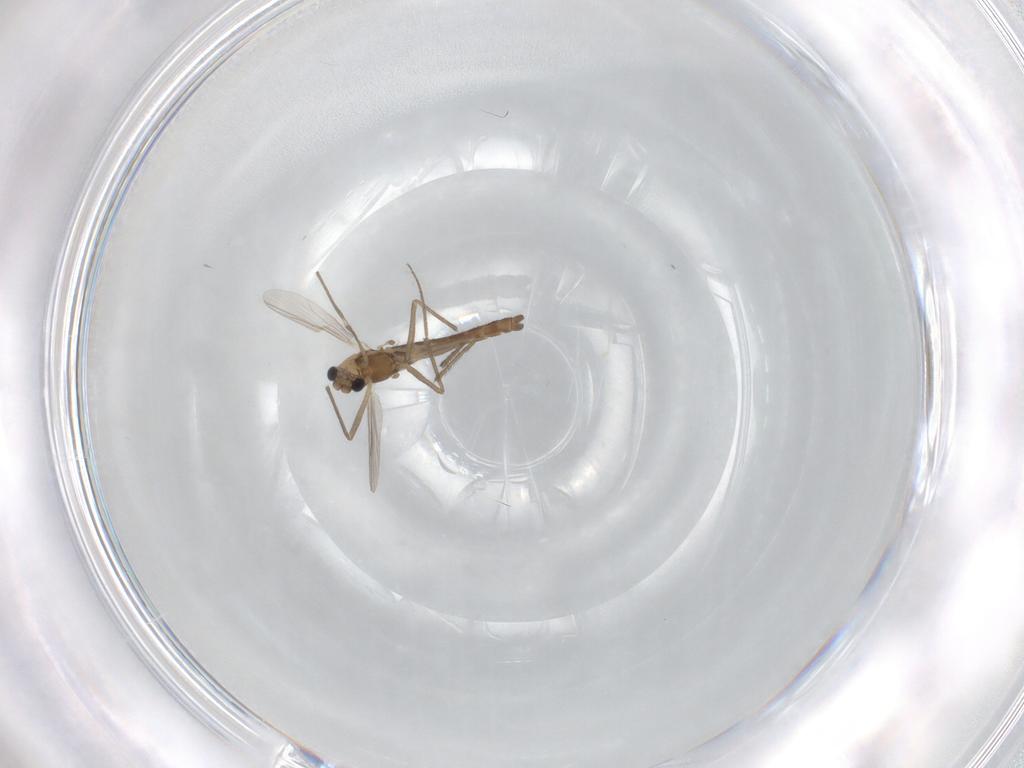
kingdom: Animalia
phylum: Arthropoda
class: Insecta
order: Diptera
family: Chironomidae
